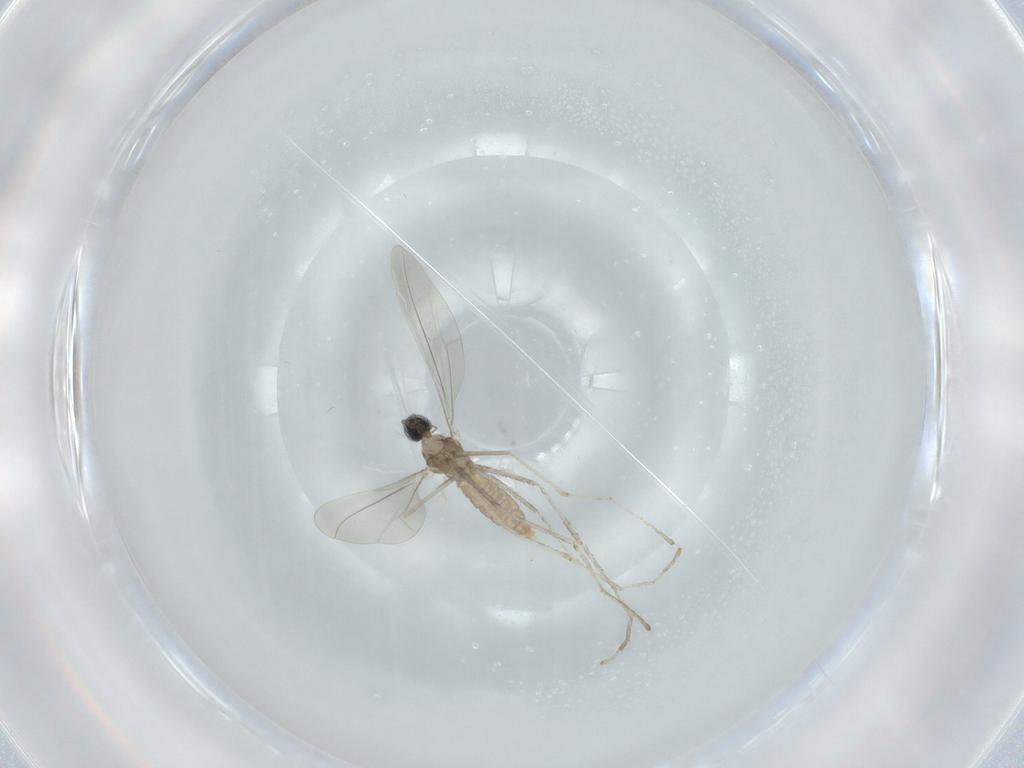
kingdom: Animalia
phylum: Arthropoda
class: Insecta
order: Diptera
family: Cecidomyiidae
